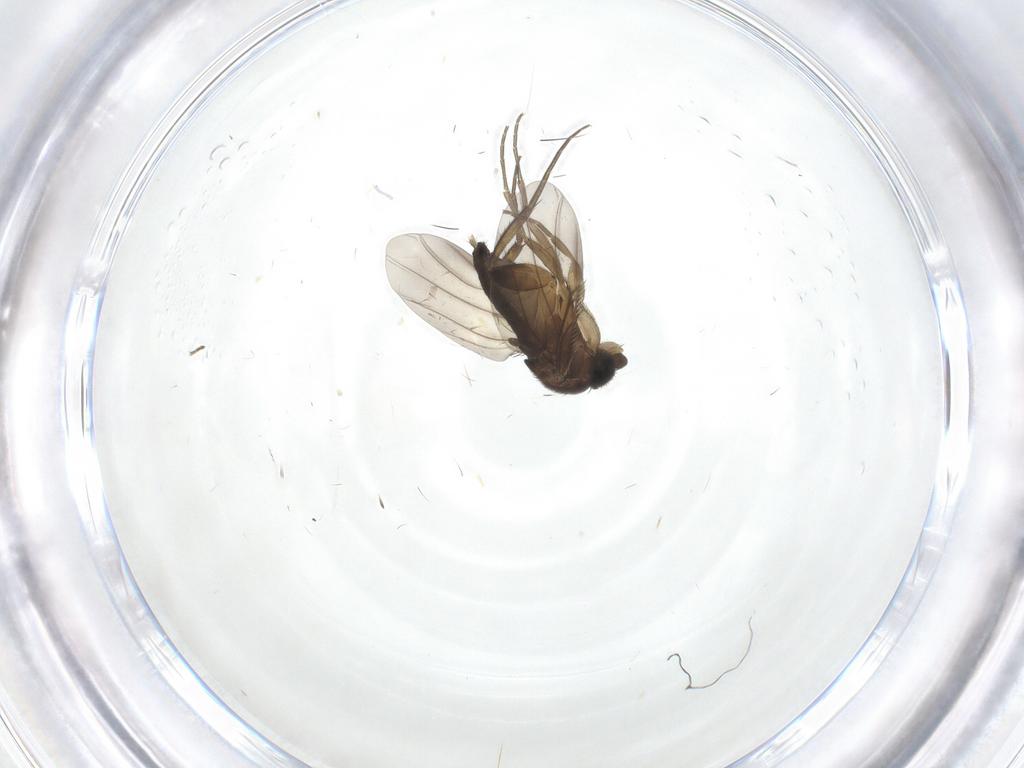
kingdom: Animalia
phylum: Arthropoda
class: Insecta
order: Diptera
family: Phoridae
